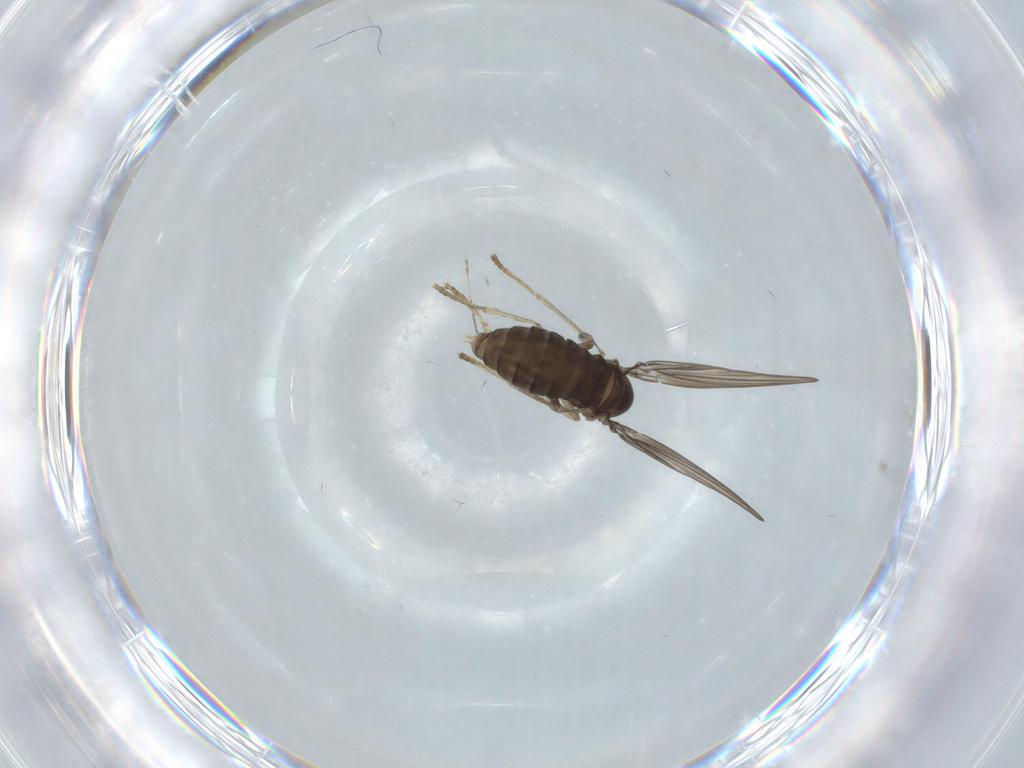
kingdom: Animalia
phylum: Arthropoda
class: Insecta
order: Diptera
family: Psychodidae
